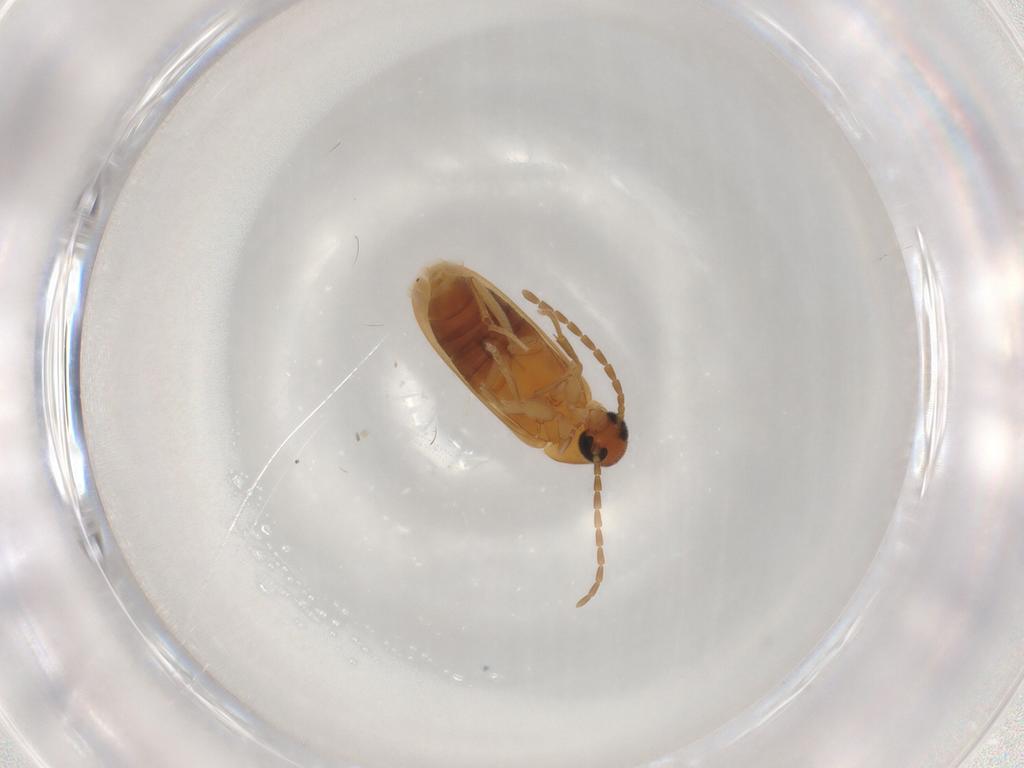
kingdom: Animalia
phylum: Arthropoda
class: Insecta
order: Coleoptera
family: Scraptiidae
